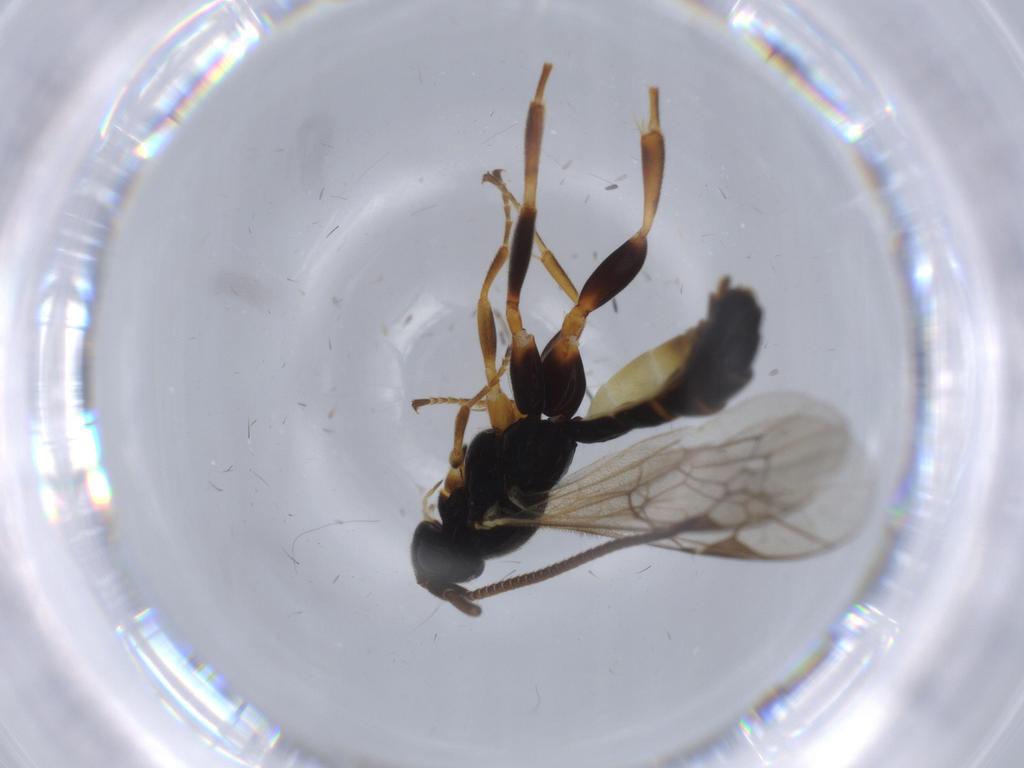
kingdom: Animalia
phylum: Arthropoda
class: Insecta
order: Hymenoptera
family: Ichneumonidae
